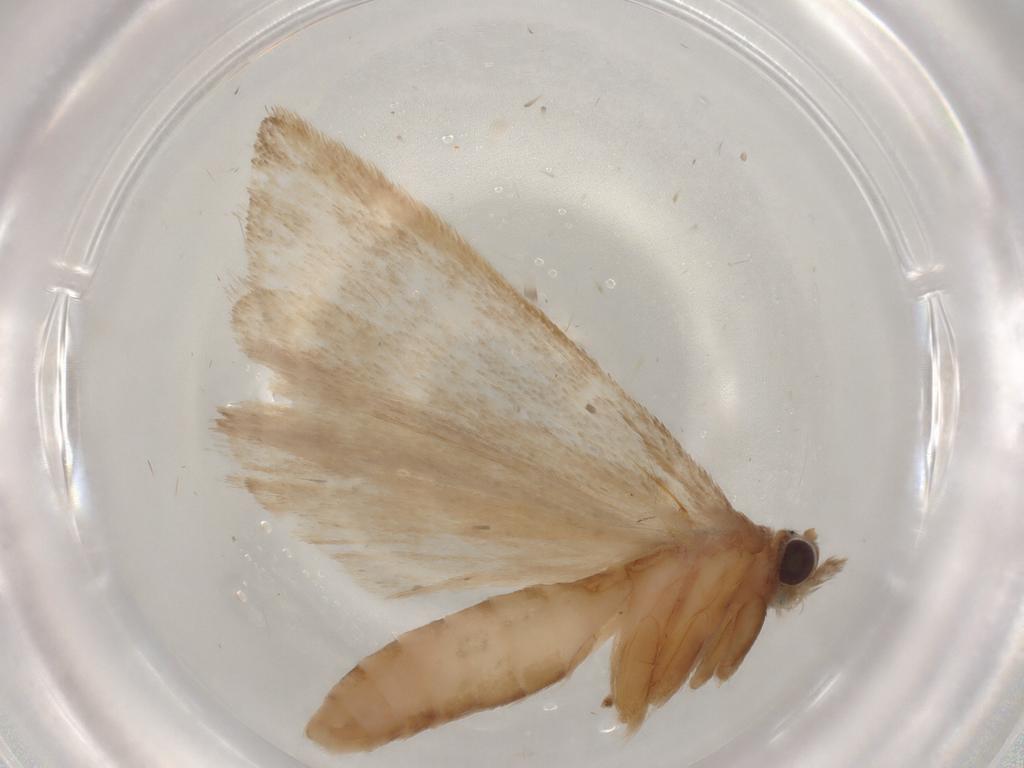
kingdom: Animalia
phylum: Arthropoda
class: Insecta
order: Lepidoptera
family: Crambidae
